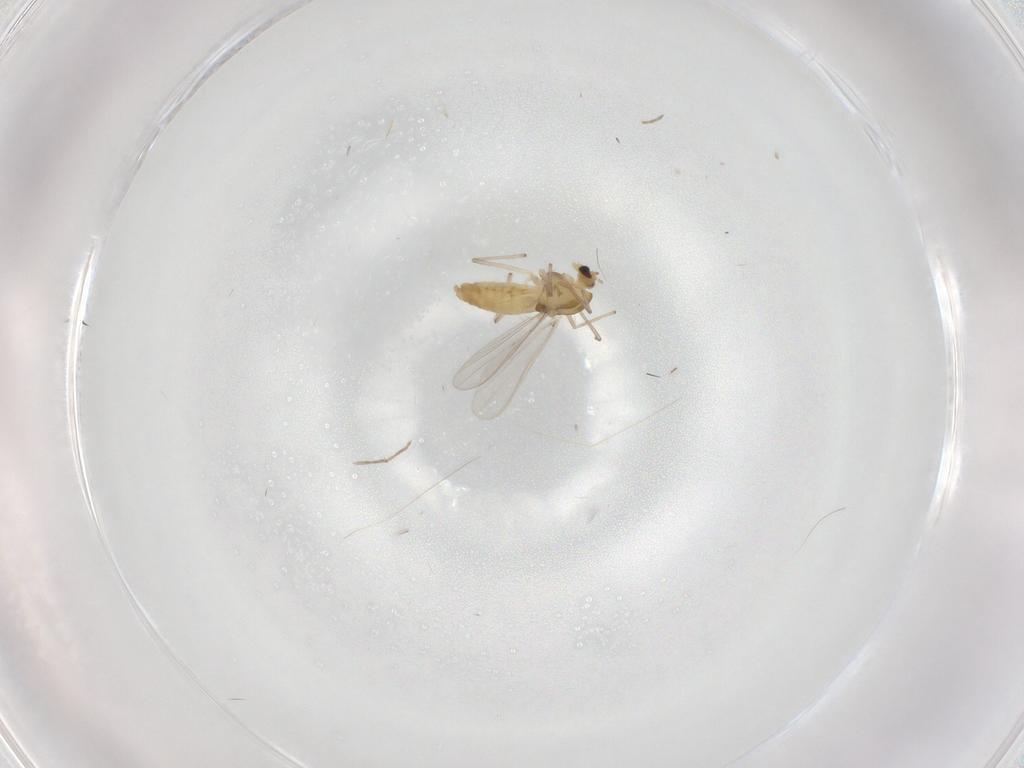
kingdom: Animalia
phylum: Arthropoda
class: Insecta
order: Diptera
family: Chironomidae
